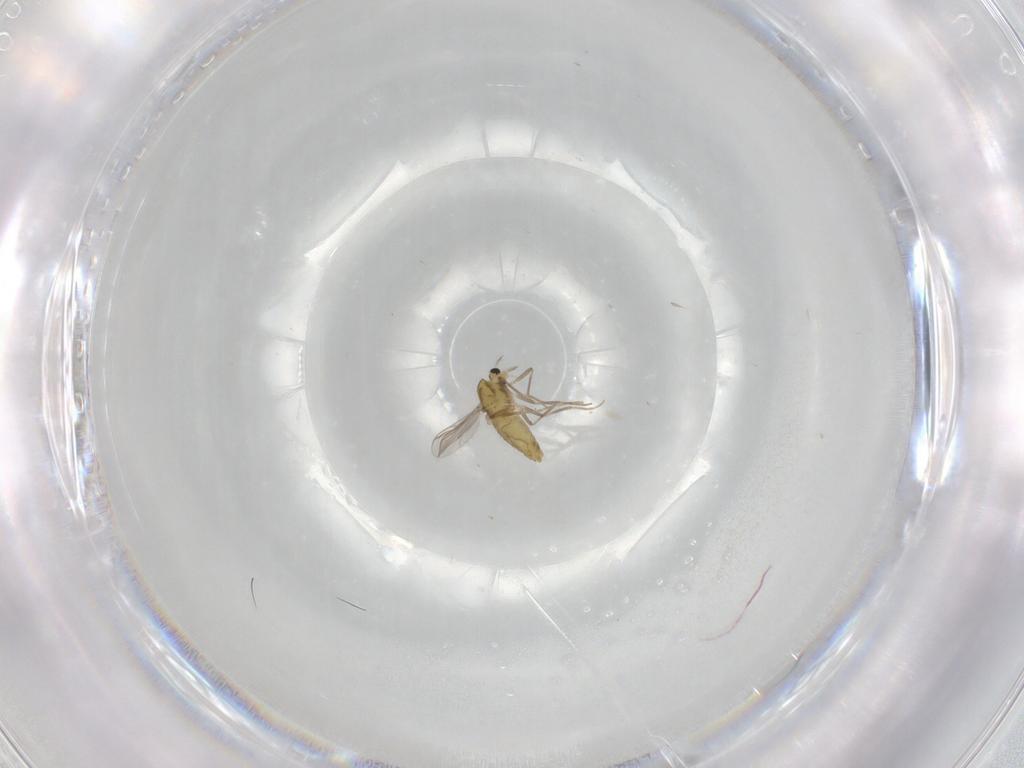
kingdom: Animalia
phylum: Arthropoda
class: Insecta
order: Diptera
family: Chironomidae
